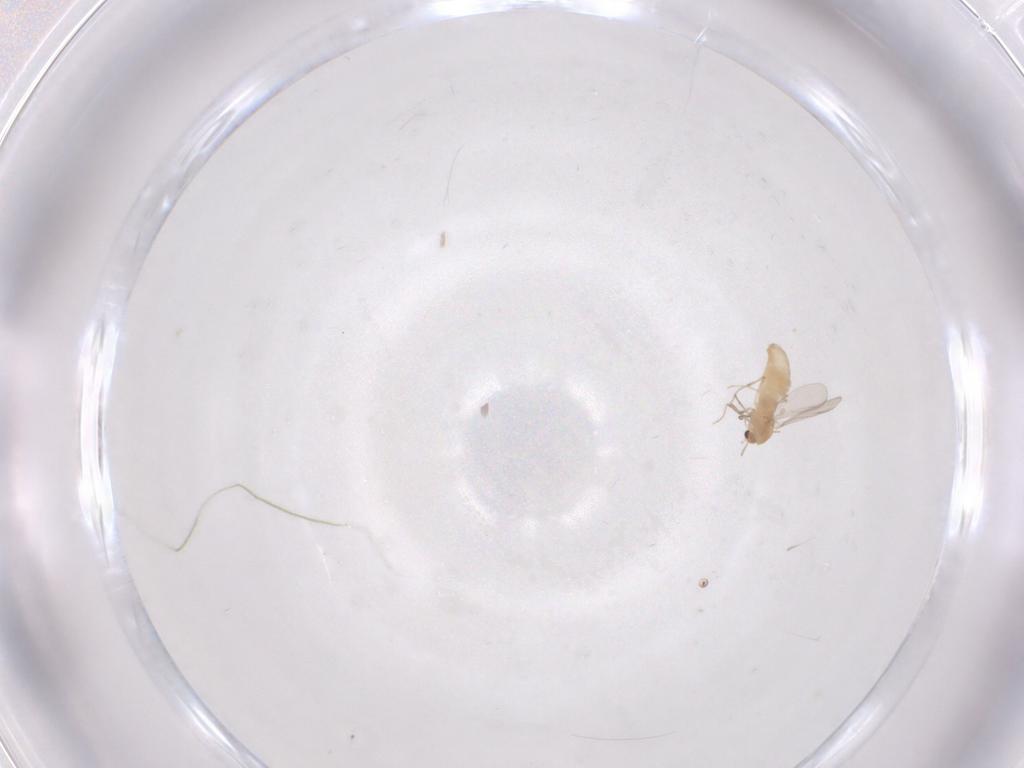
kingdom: Animalia
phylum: Arthropoda
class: Insecta
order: Diptera
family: Chironomidae
